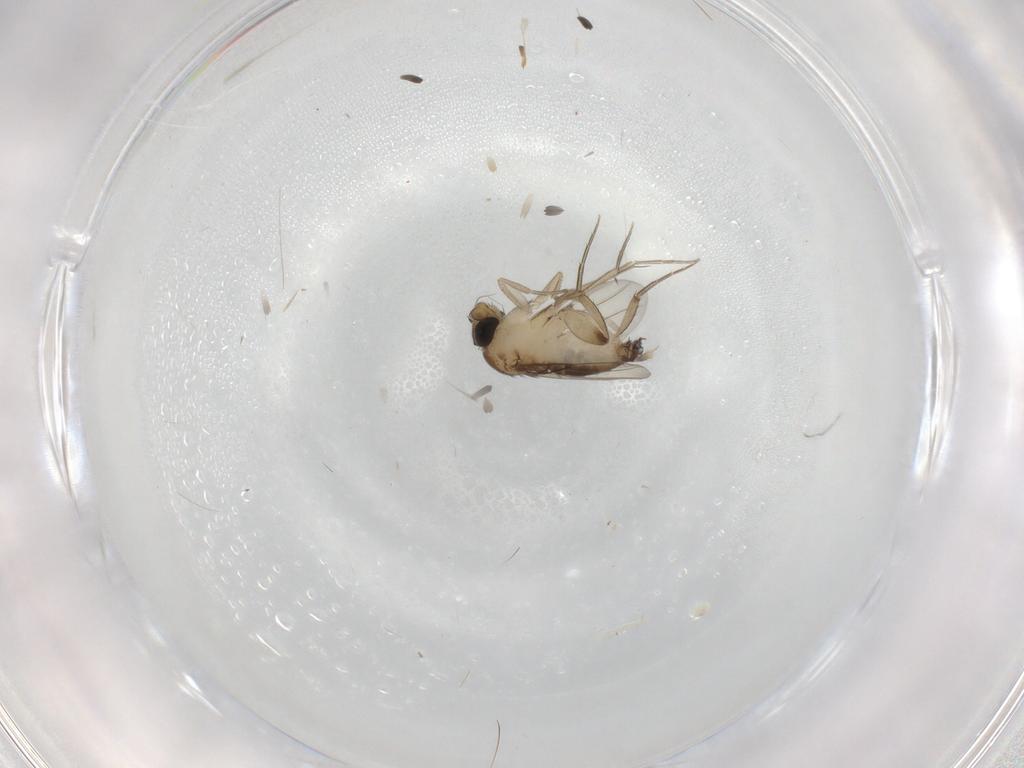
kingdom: Animalia
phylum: Arthropoda
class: Insecta
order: Diptera
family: Phoridae
